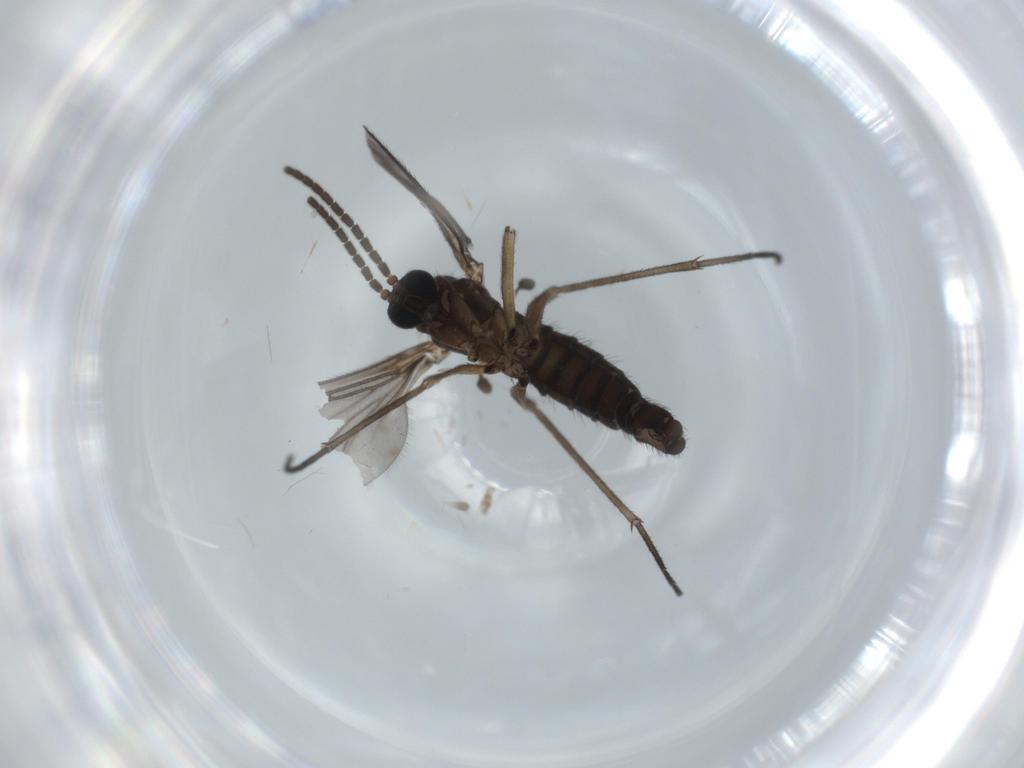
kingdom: Animalia
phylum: Arthropoda
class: Insecta
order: Diptera
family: Sciaridae
